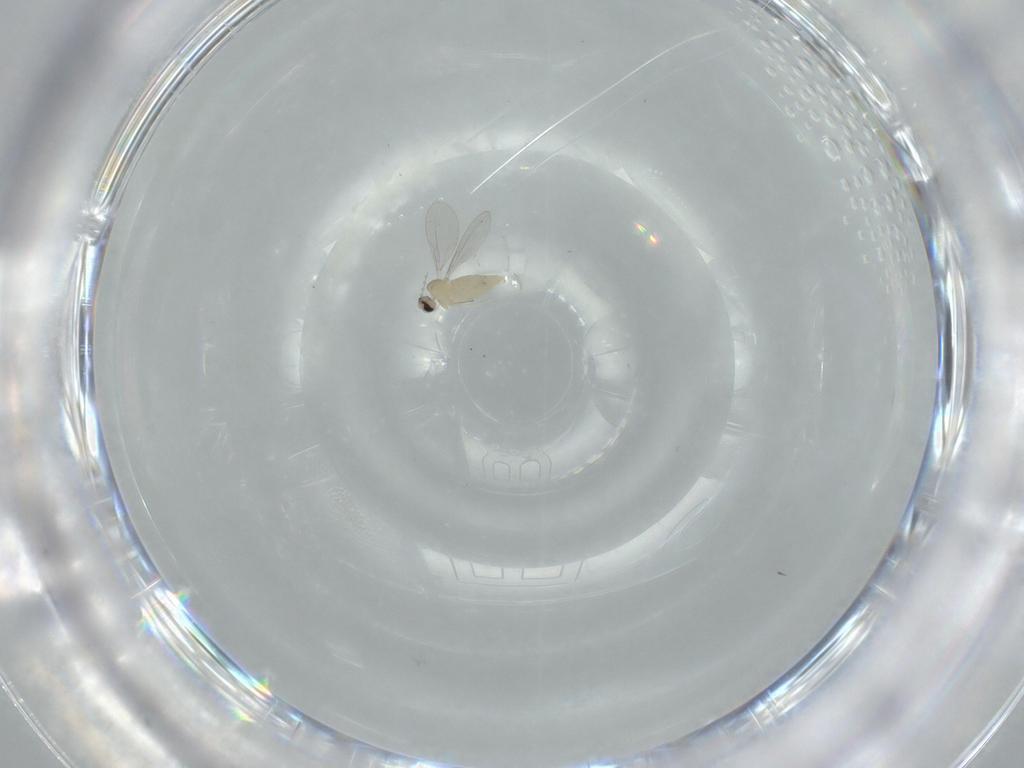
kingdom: Animalia
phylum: Arthropoda
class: Insecta
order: Diptera
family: Cecidomyiidae
